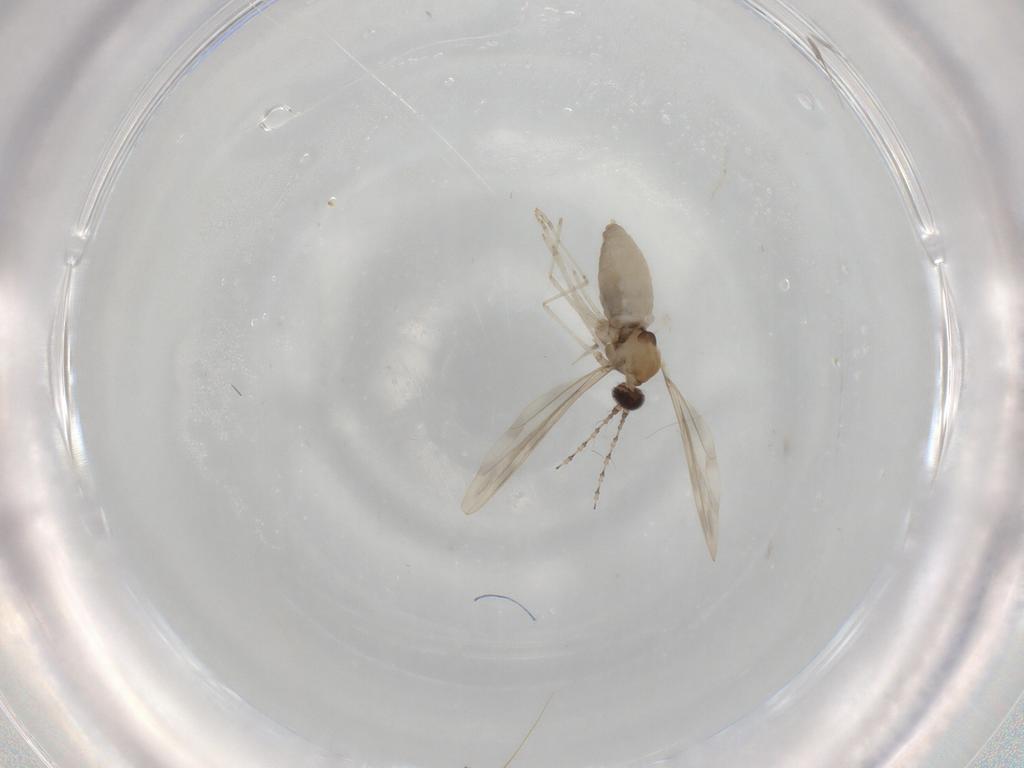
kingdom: Animalia
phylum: Arthropoda
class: Insecta
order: Diptera
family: Cecidomyiidae
